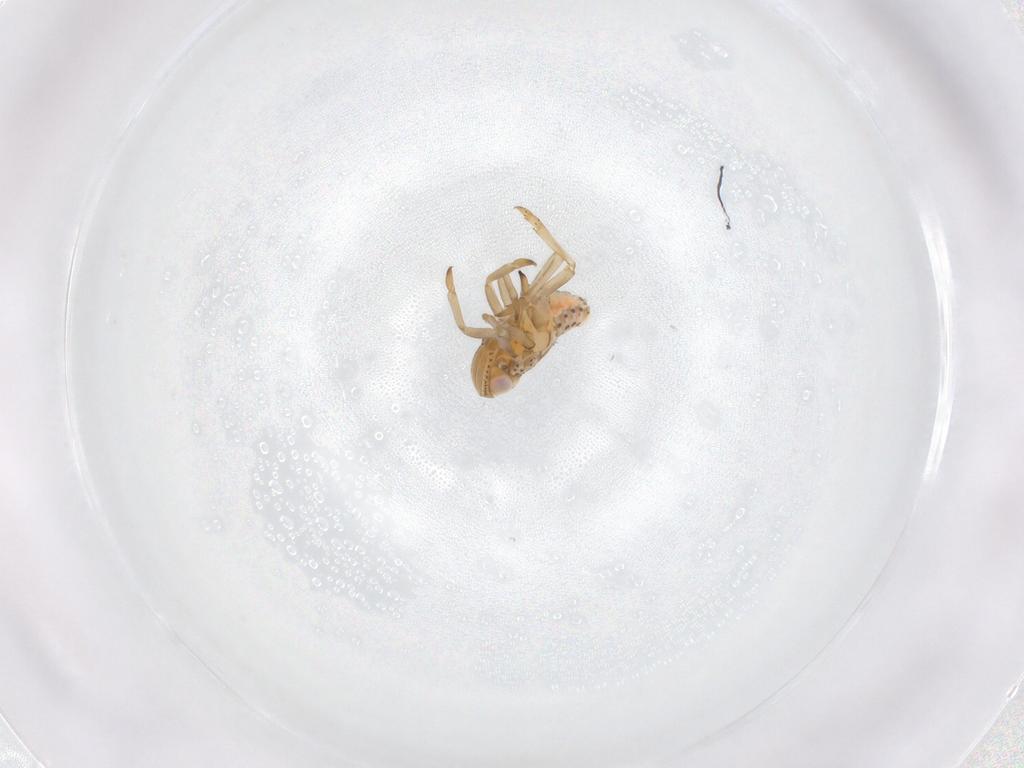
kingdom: Animalia
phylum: Arthropoda
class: Insecta
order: Hemiptera
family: Tropiduchidae
